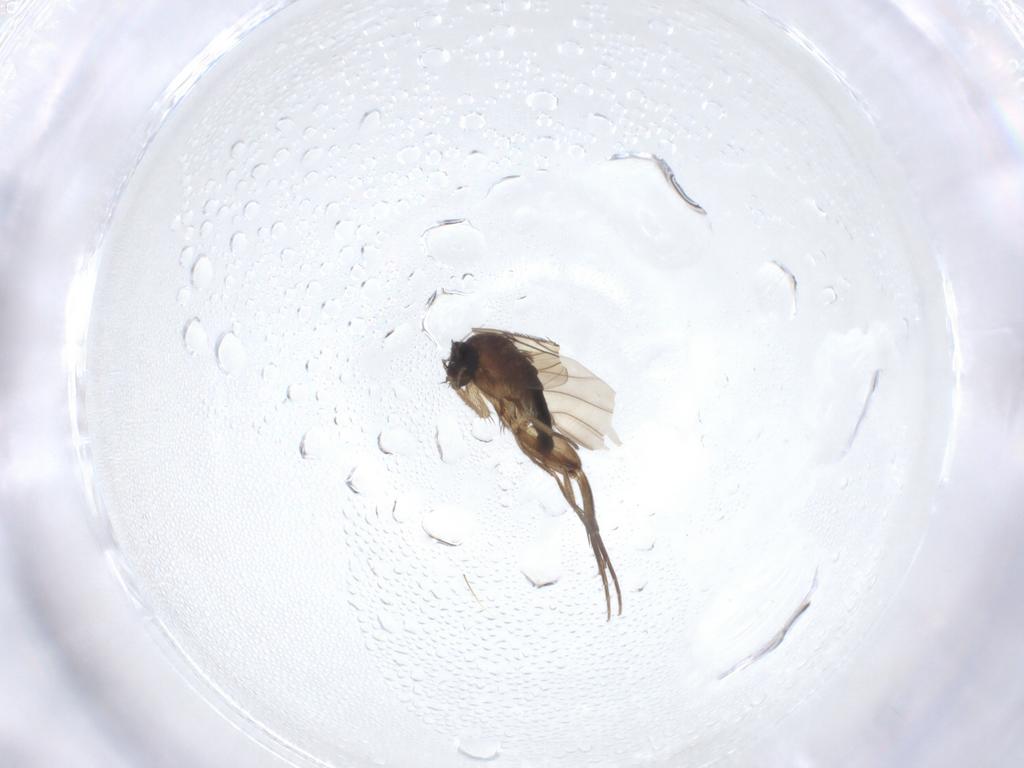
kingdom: Animalia
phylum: Arthropoda
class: Insecta
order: Diptera
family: Phoridae
